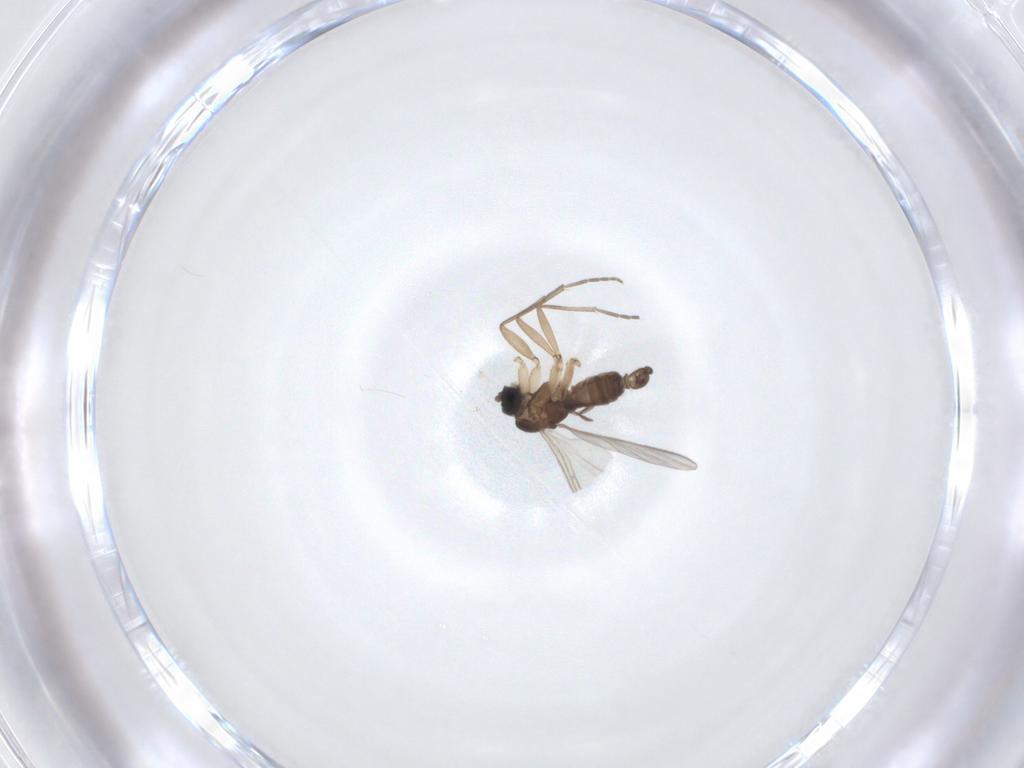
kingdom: Animalia
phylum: Arthropoda
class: Insecta
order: Diptera
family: Sciaridae
